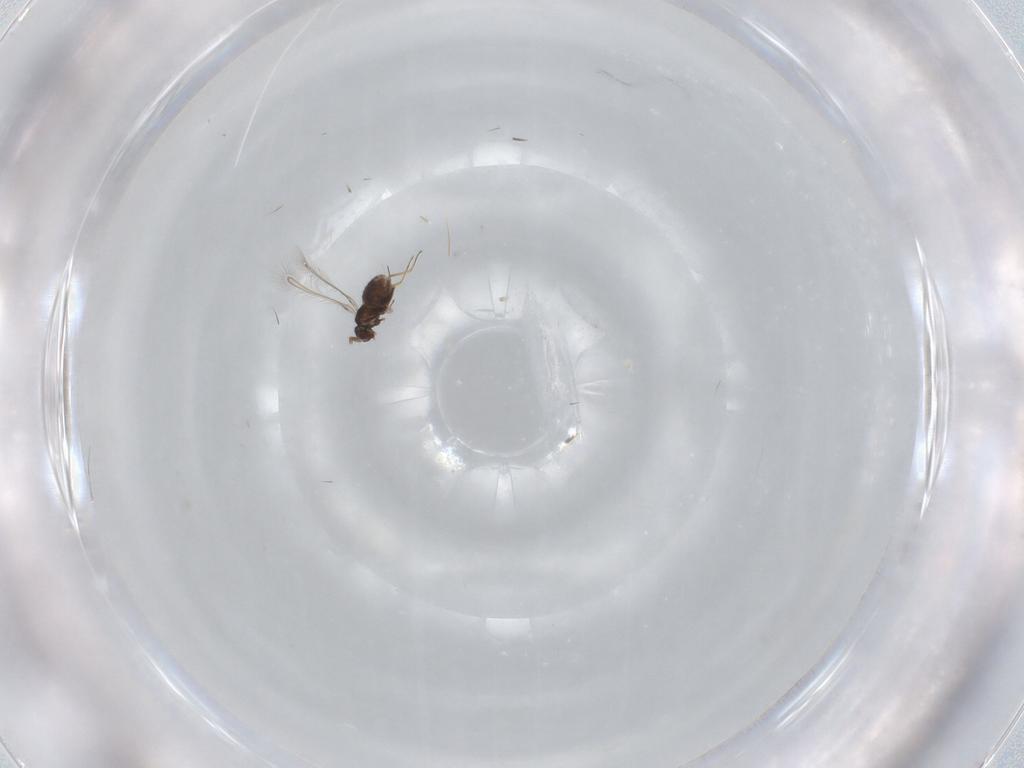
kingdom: Animalia
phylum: Arthropoda
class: Insecta
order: Hymenoptera
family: Mymaridae
